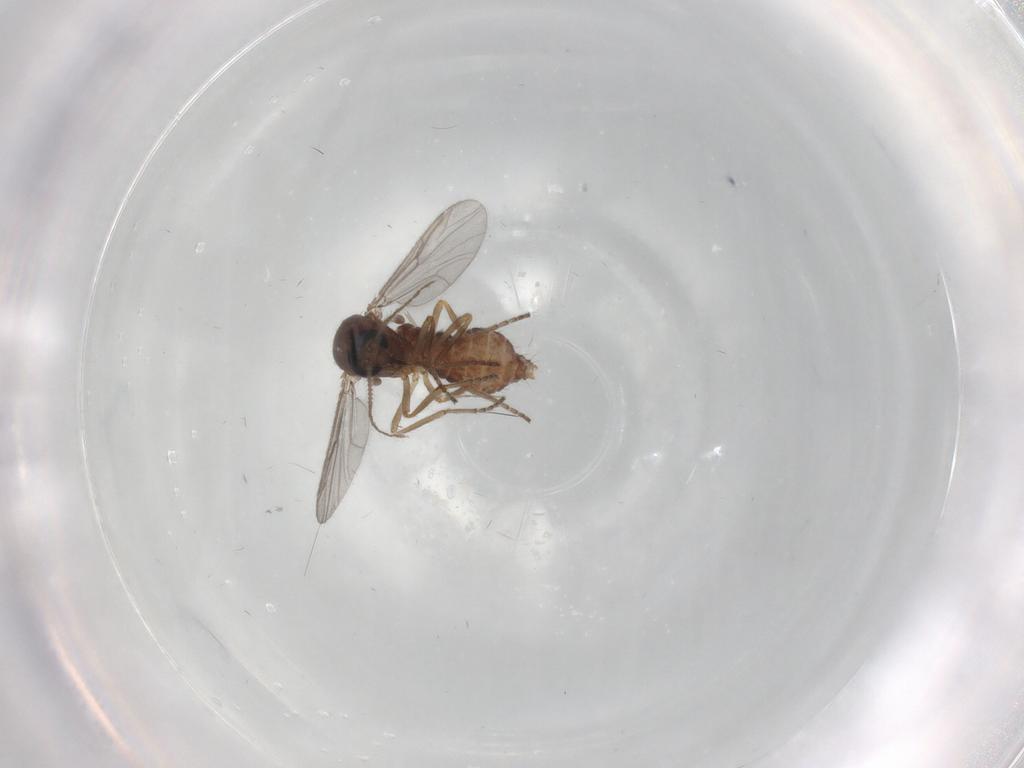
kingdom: Animalia
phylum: Arthropoda
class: Insecta
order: Diptera
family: Cecidomyiidae
